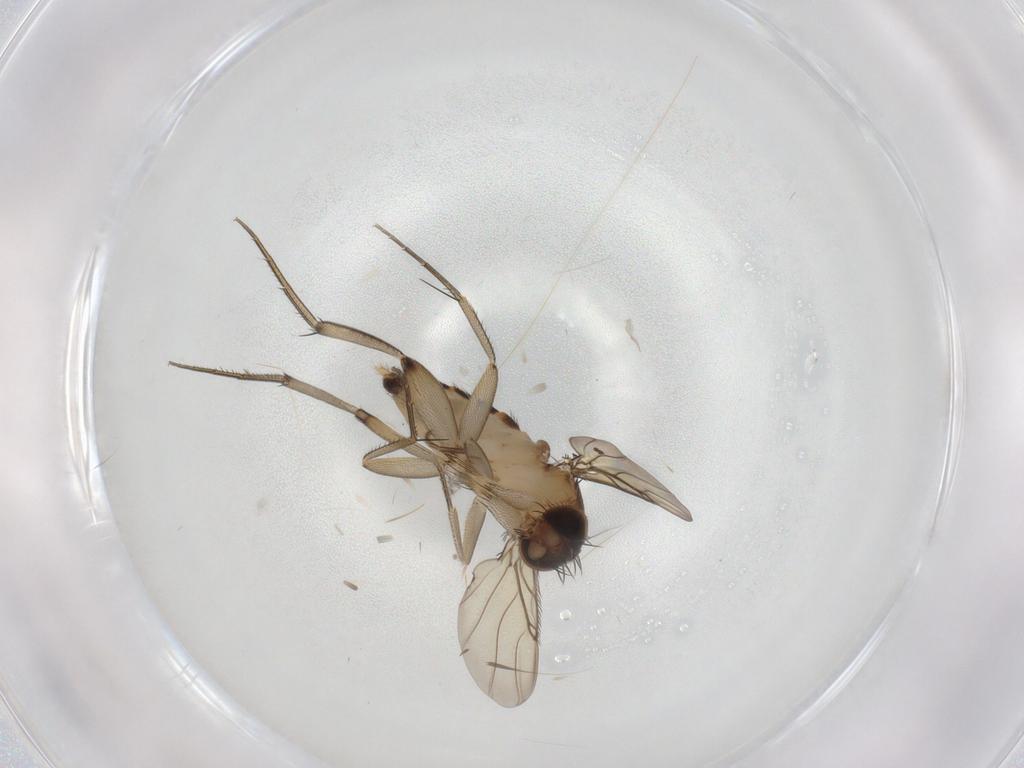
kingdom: Animalia
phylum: Arthropoda
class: Insecta
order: Diptera
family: Phoridae
